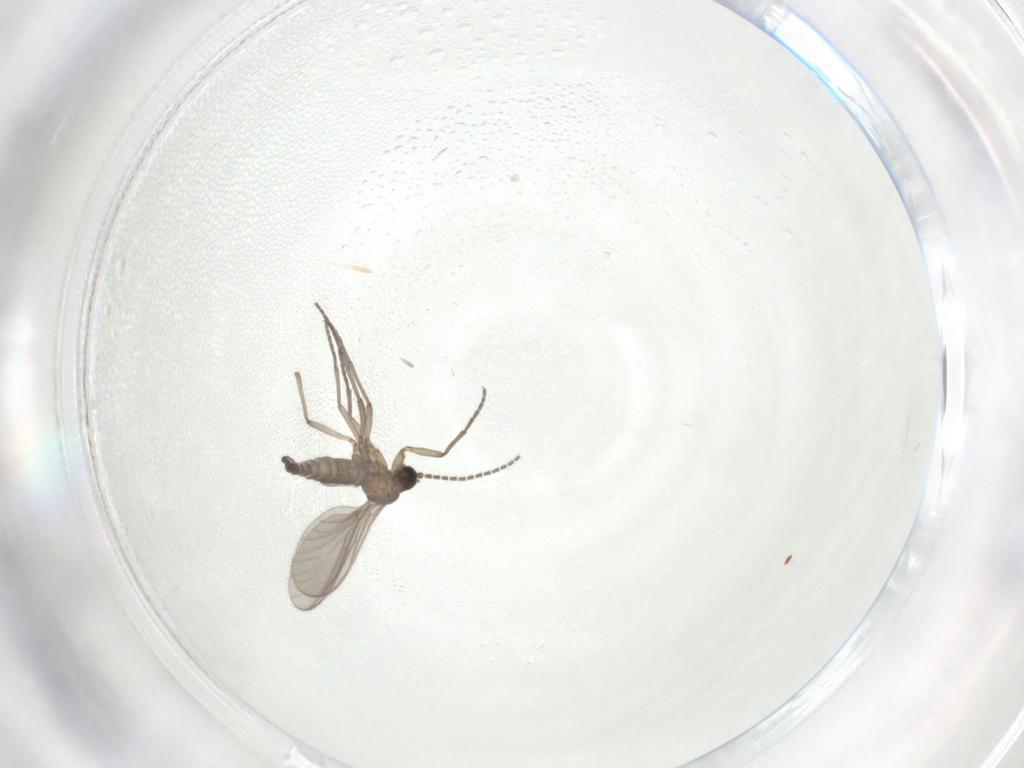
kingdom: Animalia
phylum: Arthropoda
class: Insecta
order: Diptera
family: Sciaridae
